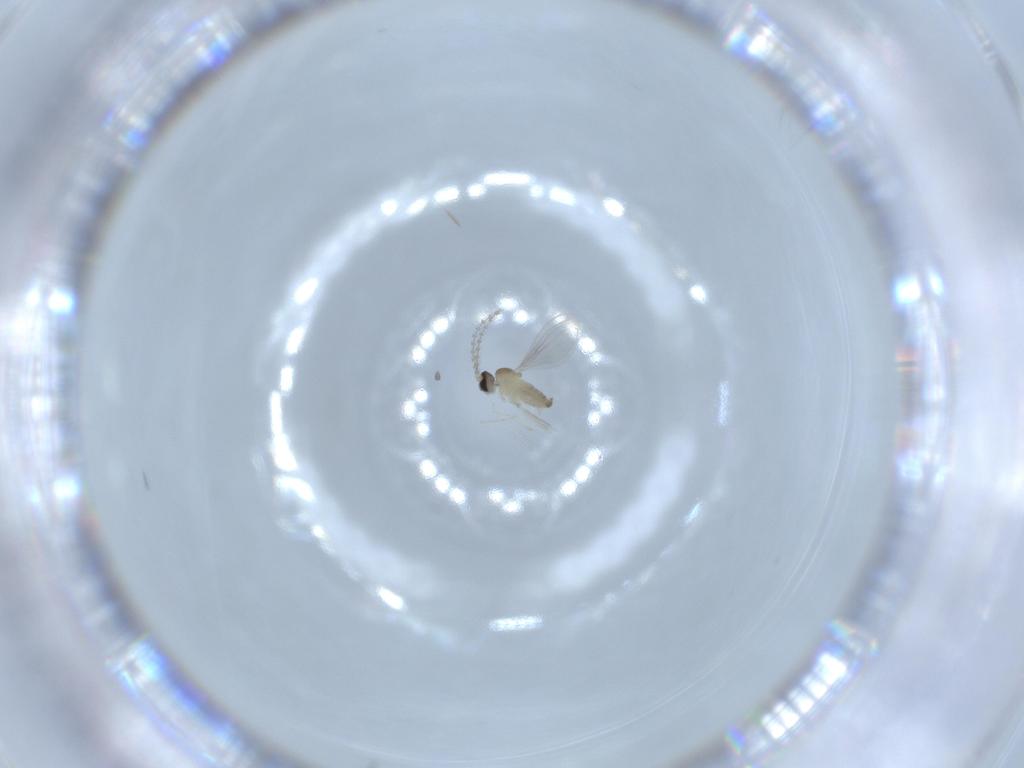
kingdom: Animalia
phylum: Arthropoda
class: Insecta
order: Diptera
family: Cecidomyiidae
